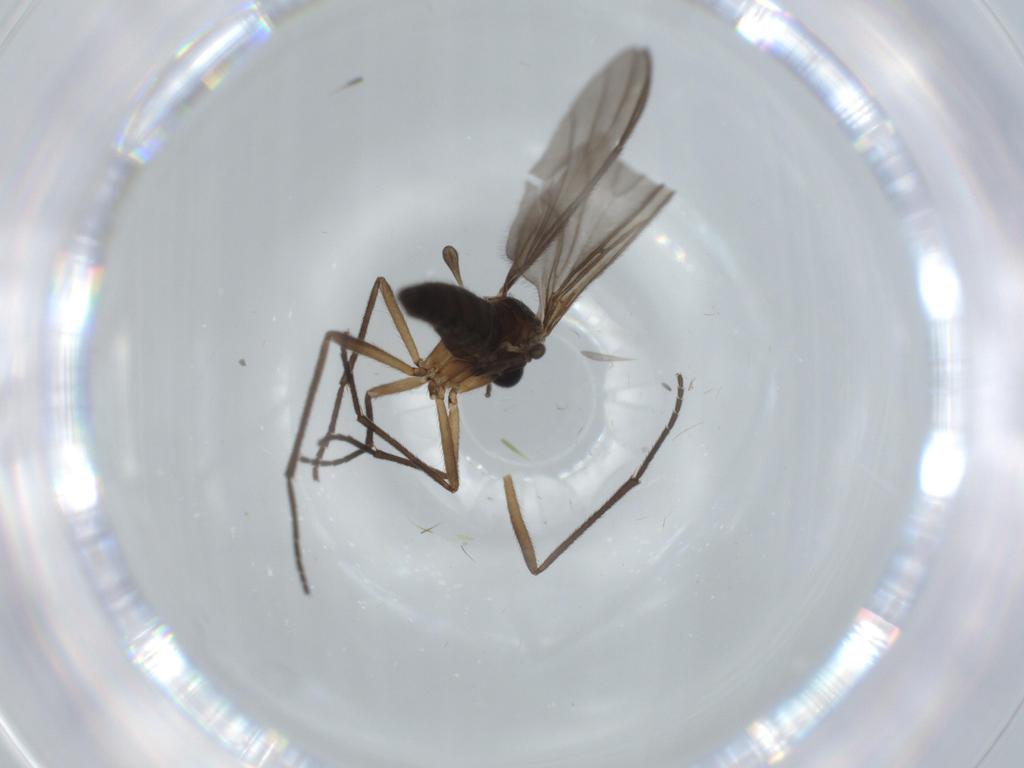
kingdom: Animalia
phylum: Arthropoda
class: Insecta
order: Diptera
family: Sciaridae
